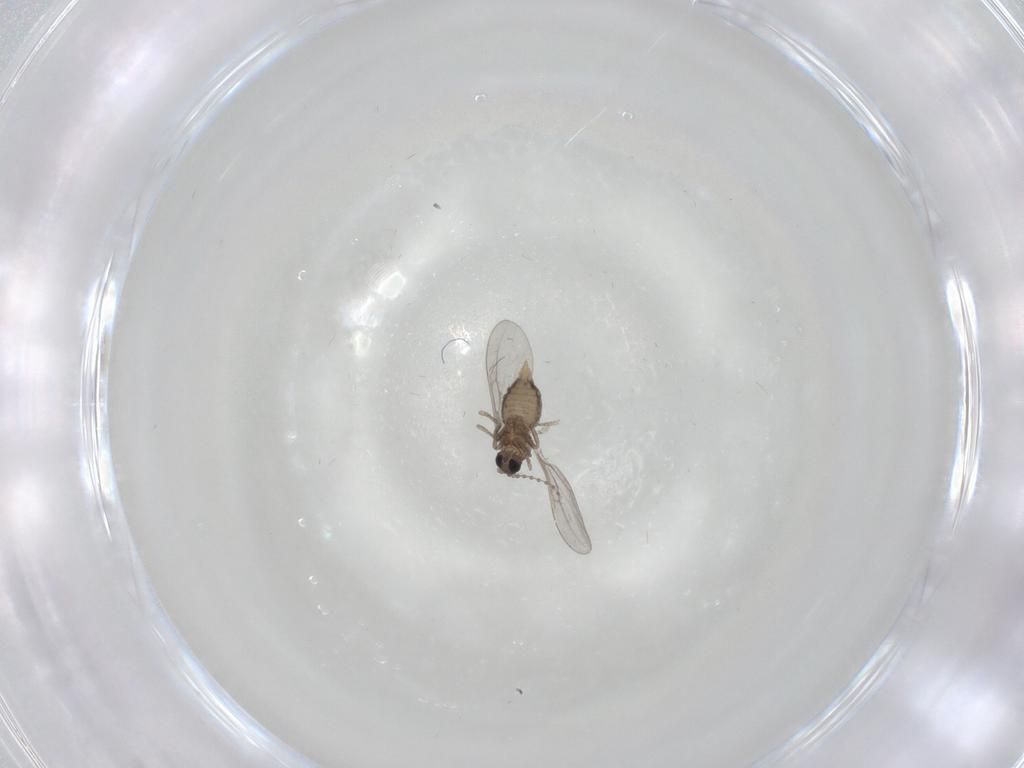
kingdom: Animalia
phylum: Arthropoda
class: Insecta
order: Diptera
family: Cecidomyiidae
